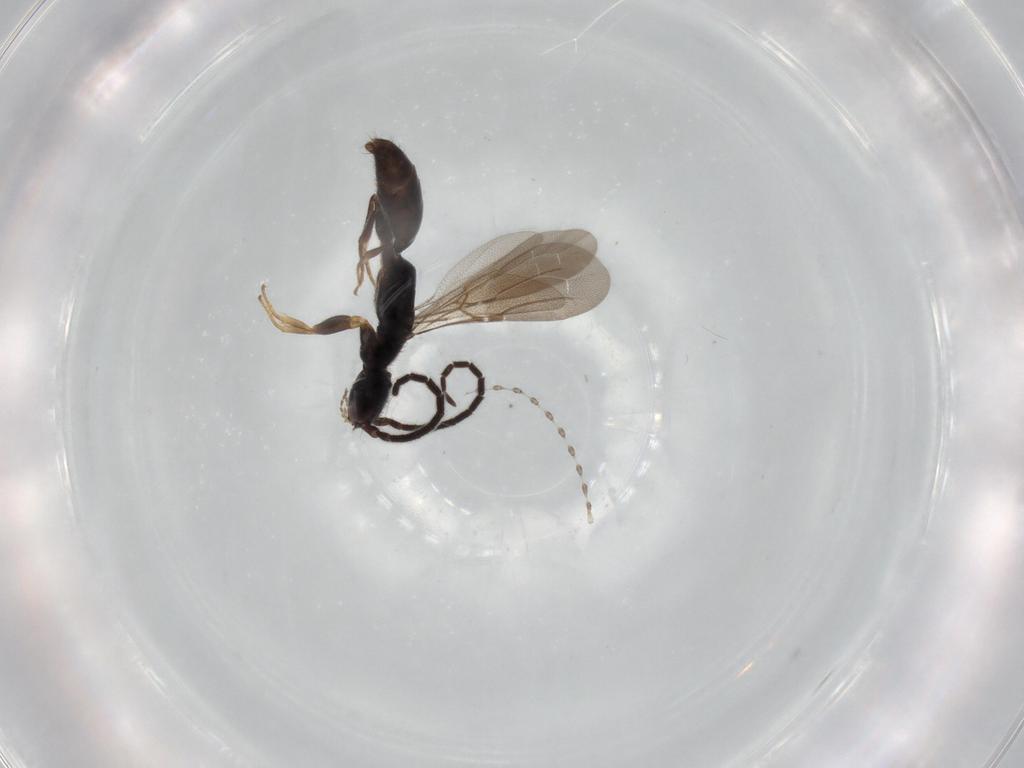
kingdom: Animalia
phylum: Arthropoda
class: Insecta
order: Hymenoptera
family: Bethylidae
